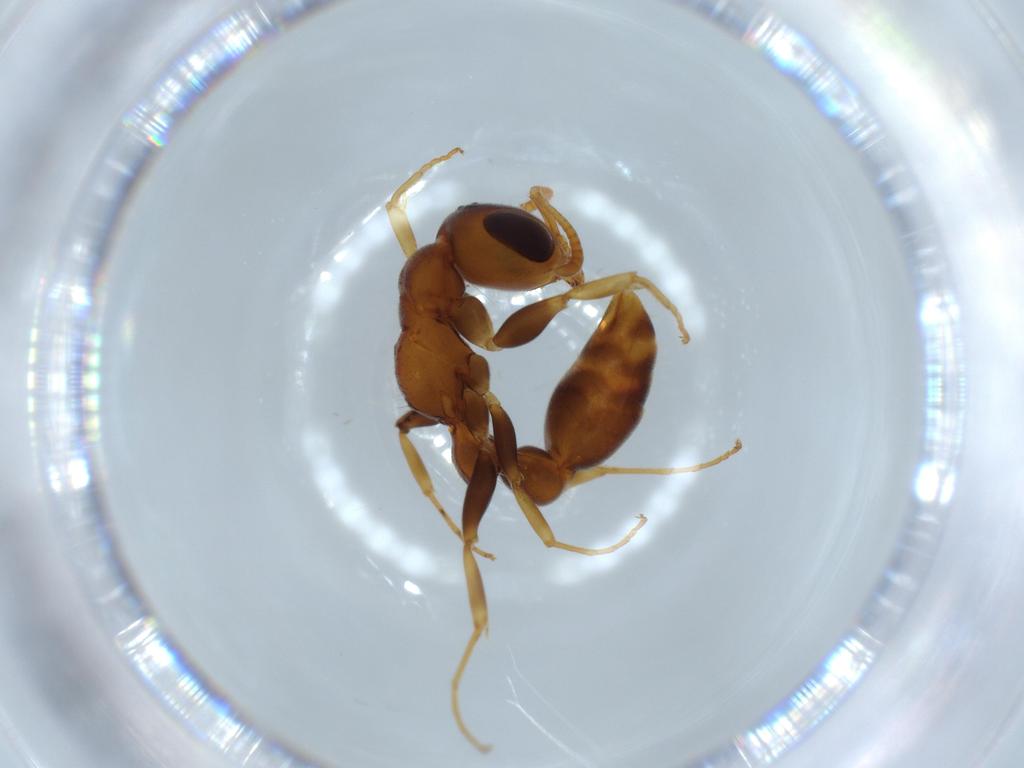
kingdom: Animalia
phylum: Arthropoda
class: Insecta
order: Hymenoptera
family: Formicidae
